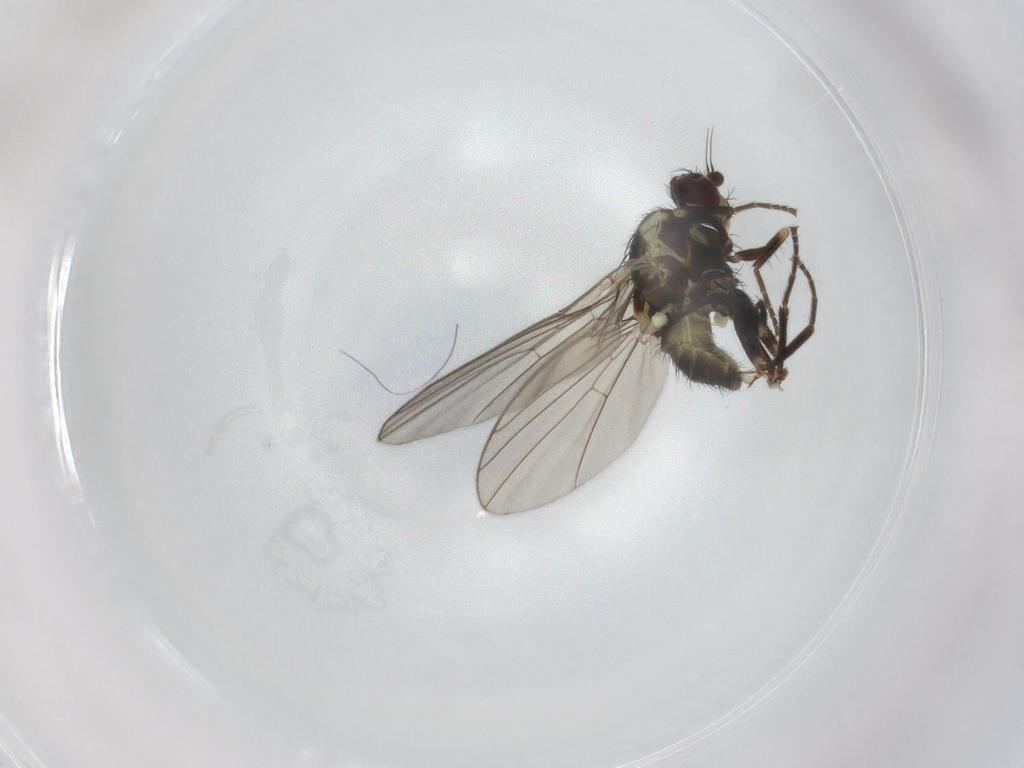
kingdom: Animalia
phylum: Arthropoda
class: Insecta
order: Diptera
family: Agromyzidae
